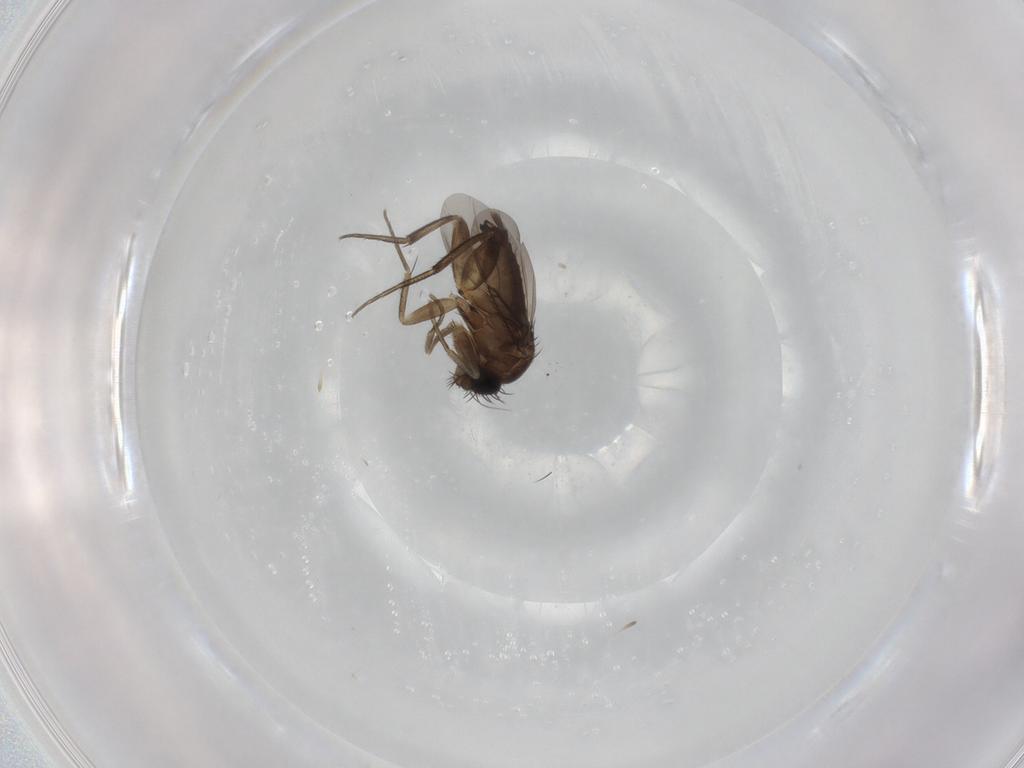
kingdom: Animalia
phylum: Arthropoda
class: Insecta
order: Diptera
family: Phoridae
